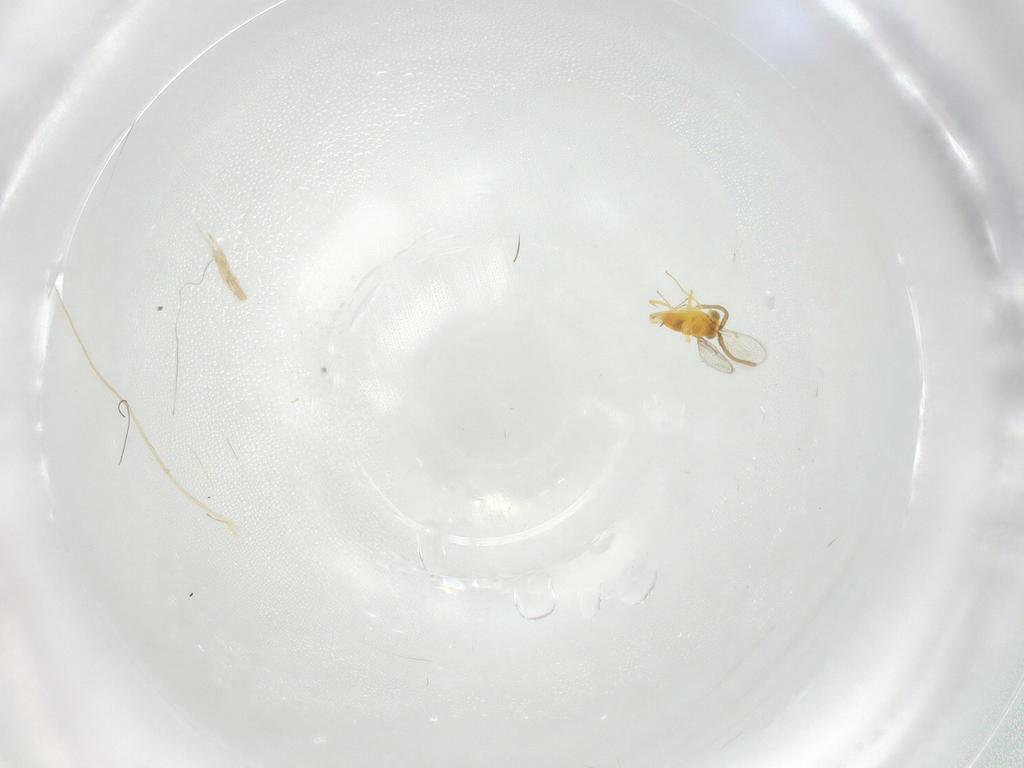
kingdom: Animalia
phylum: Arthropoda
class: Insecta
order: Hymenoptera
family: Aphelinidae
